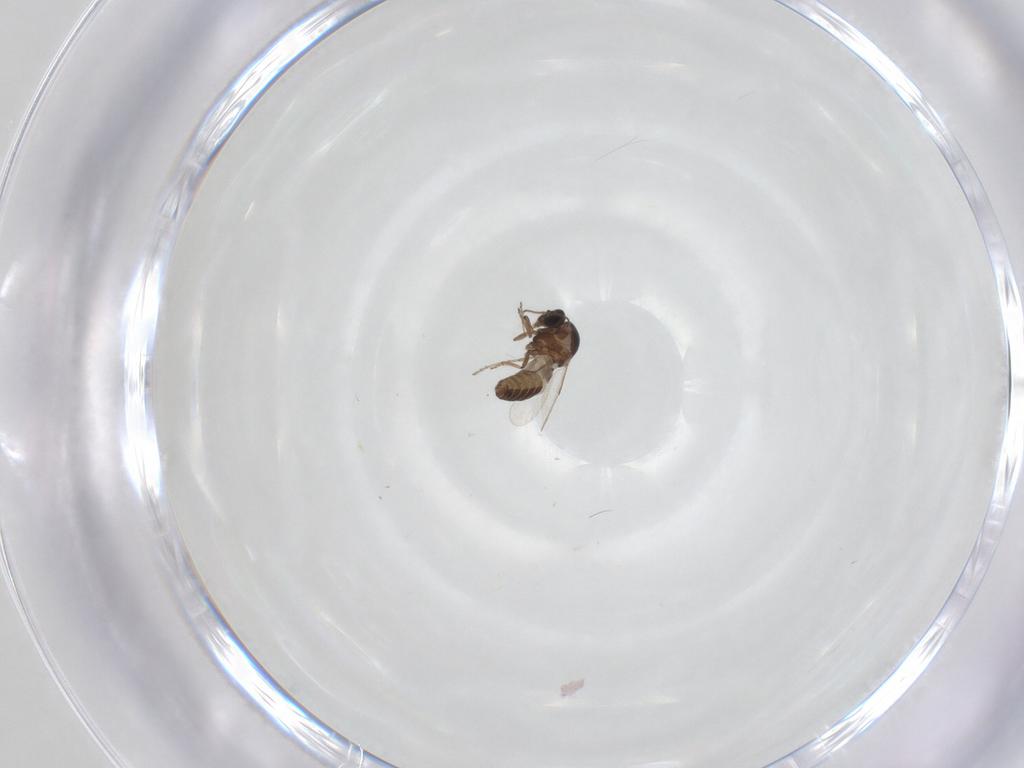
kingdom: Animalia
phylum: Arthropoda
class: Insecta
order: Diptera
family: Ceratopogonidae
